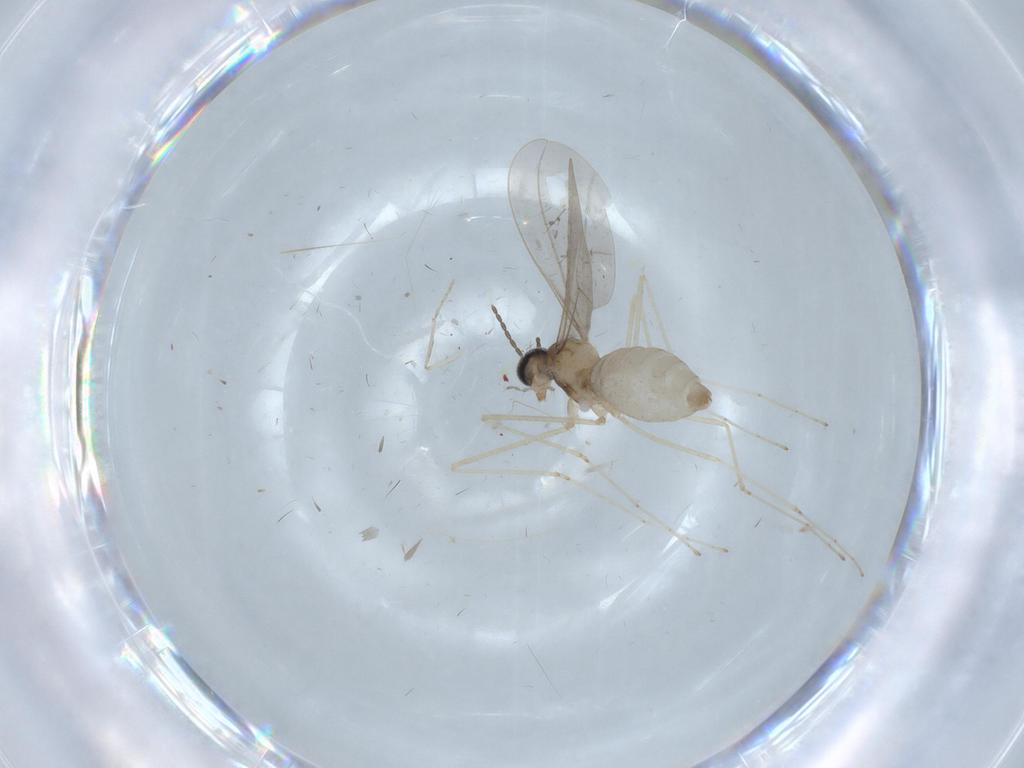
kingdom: Animalia
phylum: Arthropoda
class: Insecta
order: Diptera
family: Cecidomyiidae
